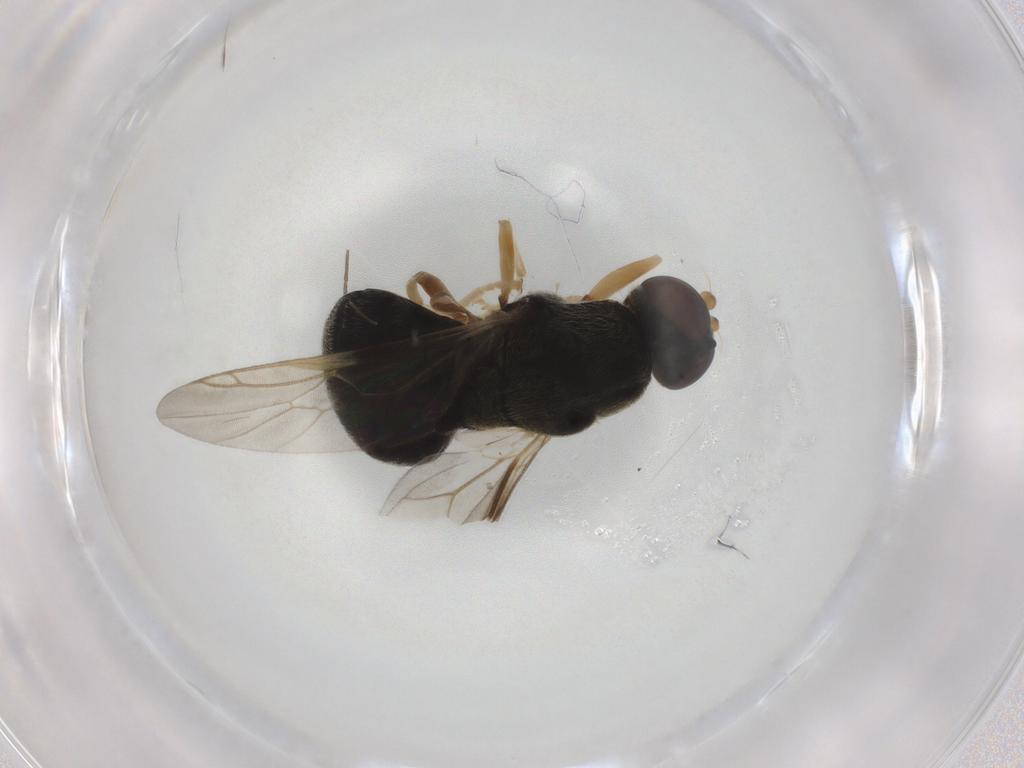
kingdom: Animalia
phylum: Arthropoda
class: Insecta
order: Diptera
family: Stratiomyidae
